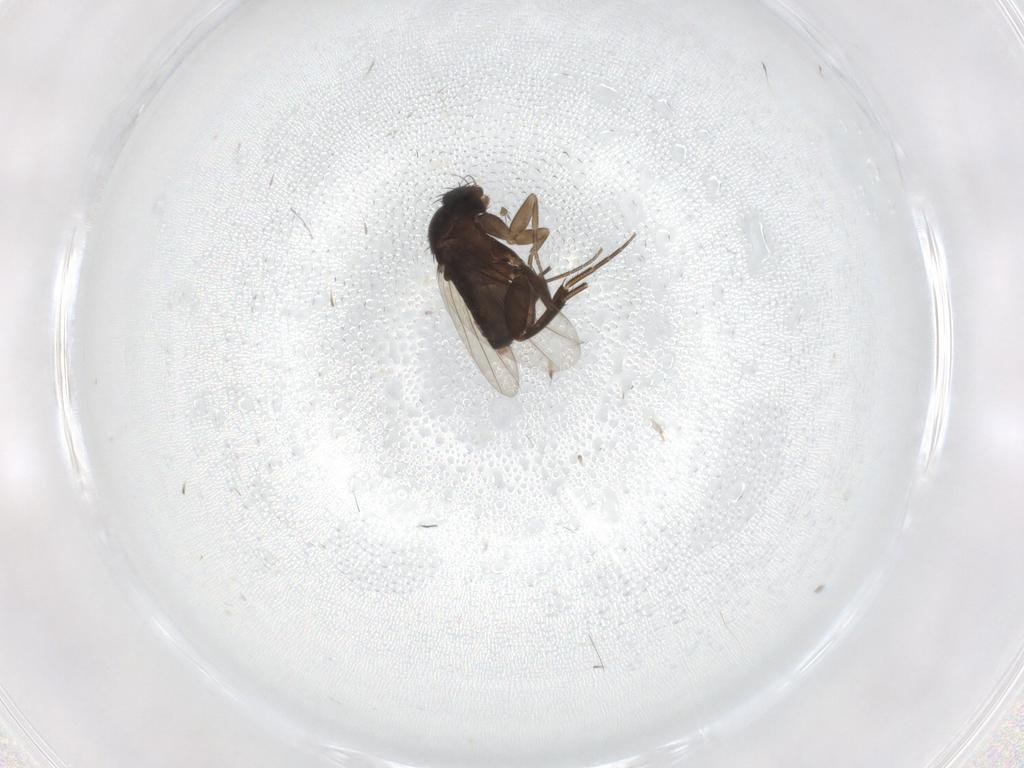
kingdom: Animalia
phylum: Arthropoda
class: Insecta
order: Diptera
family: Phoridae
